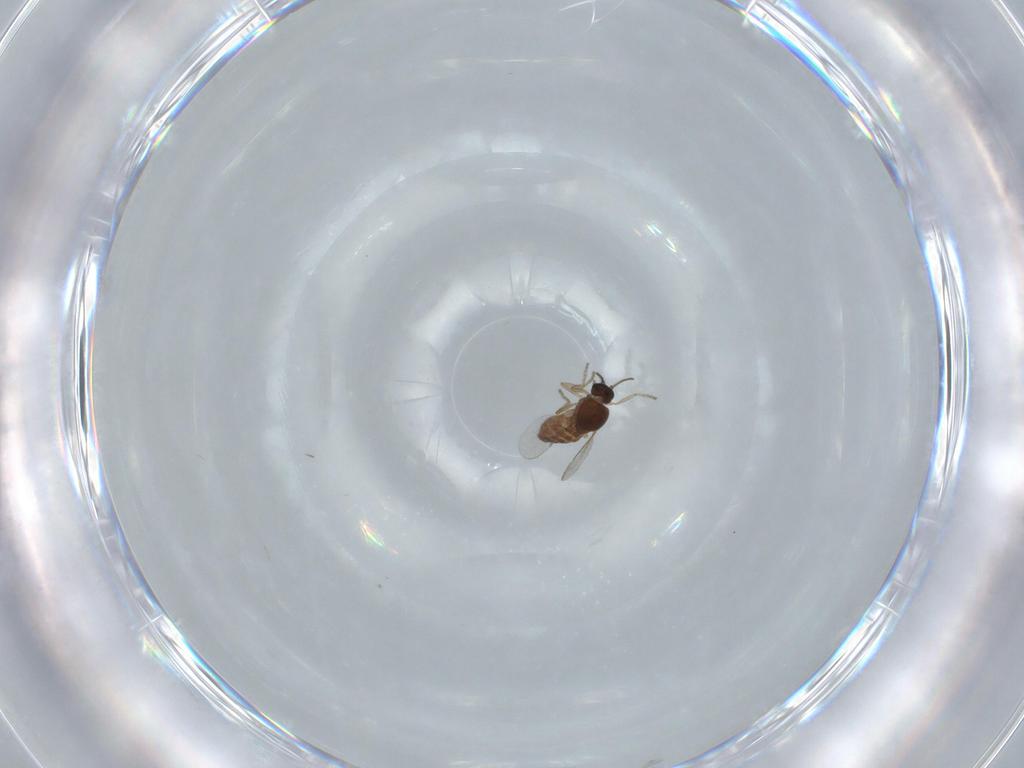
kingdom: Animalia
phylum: Arthropoda
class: Insecta
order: Diptera
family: Ceratopogonidae
